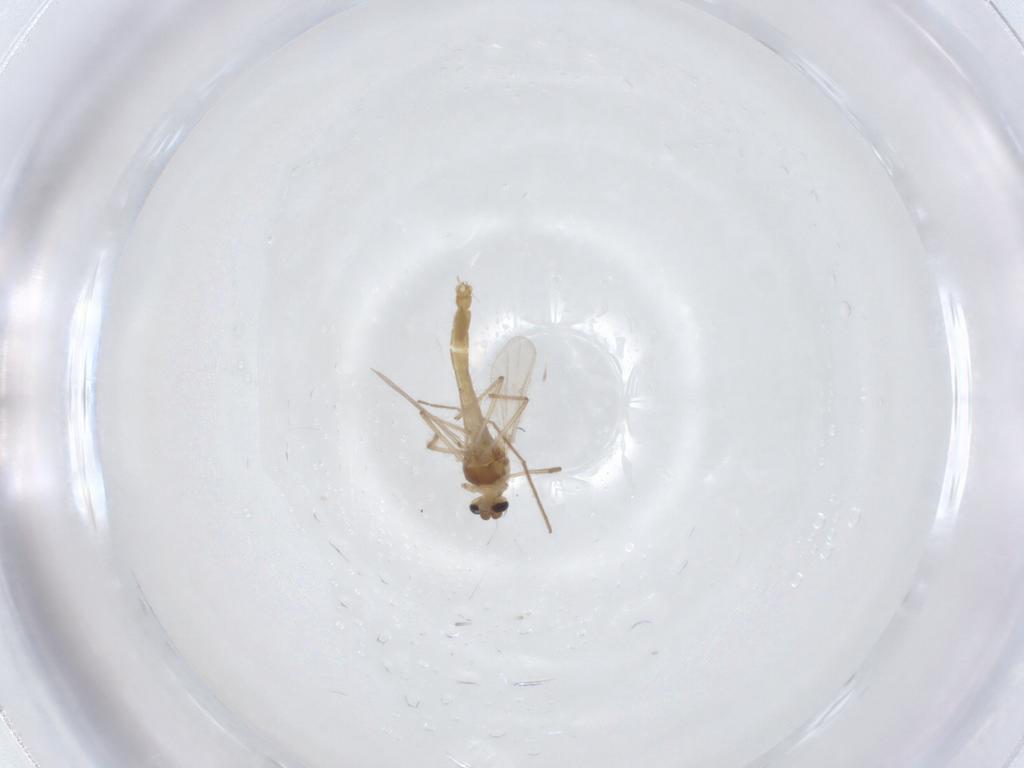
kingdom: Animalia
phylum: Arthropoda
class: Insecta
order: Diptera
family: Chironomidae
